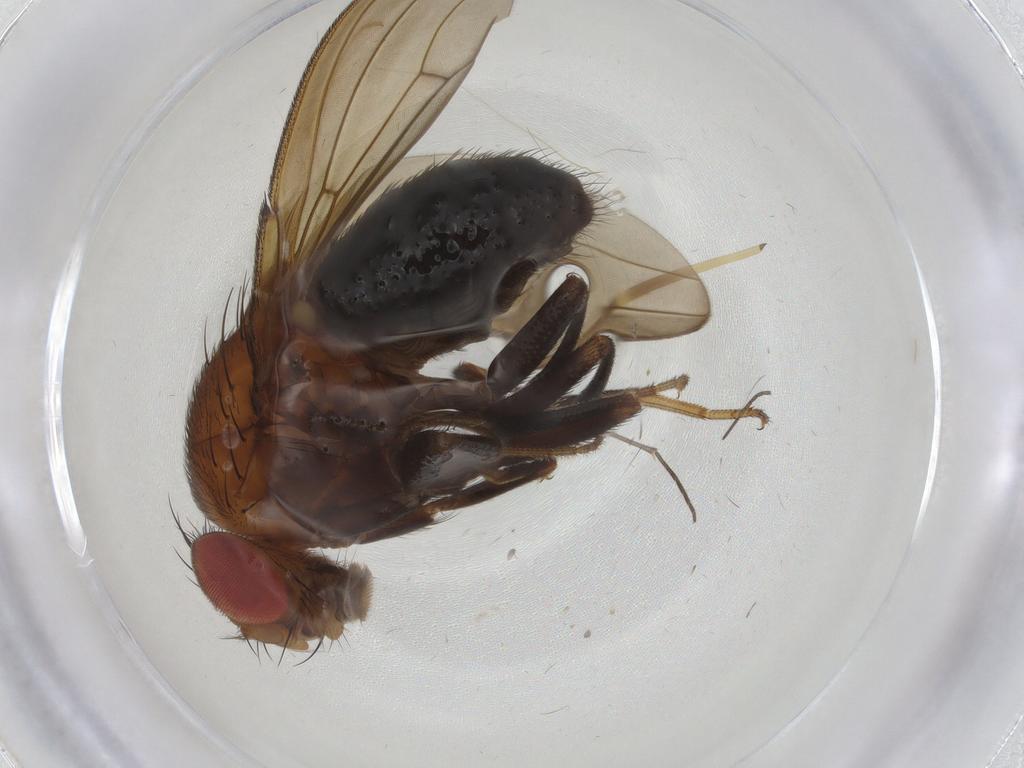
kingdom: Animalia
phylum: Arthropoda
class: Insecta
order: Diptera
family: Drosophilidae
